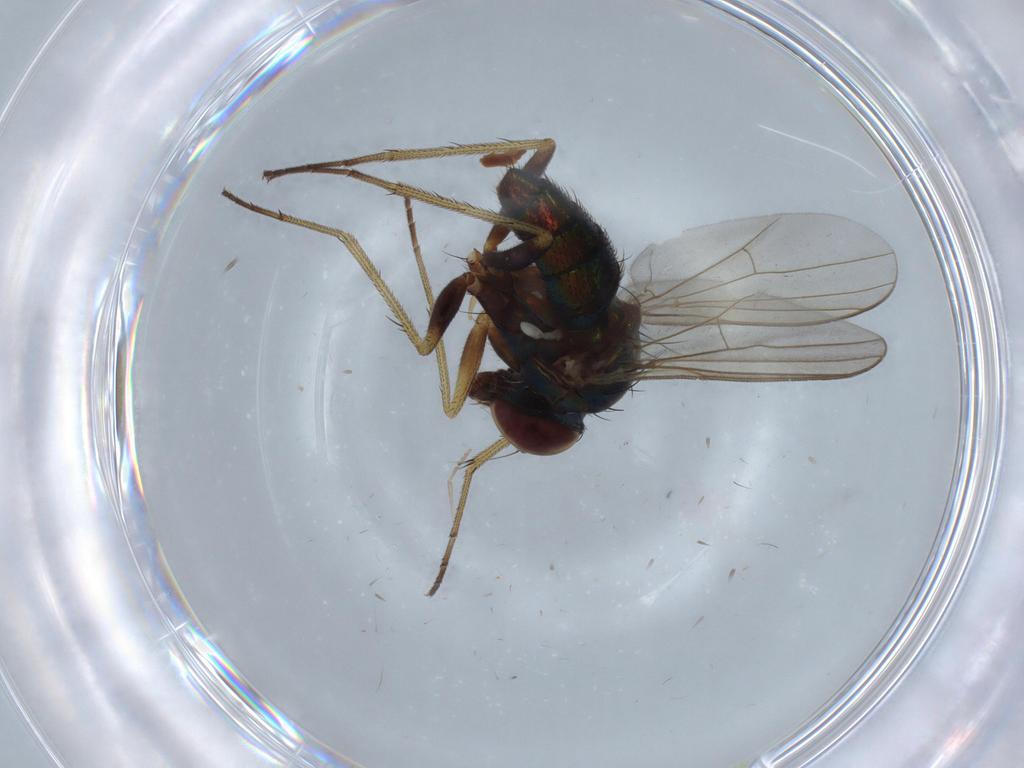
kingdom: Animalia
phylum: Arthropoda
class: Insecta
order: Diptera
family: Dolichopodidae
